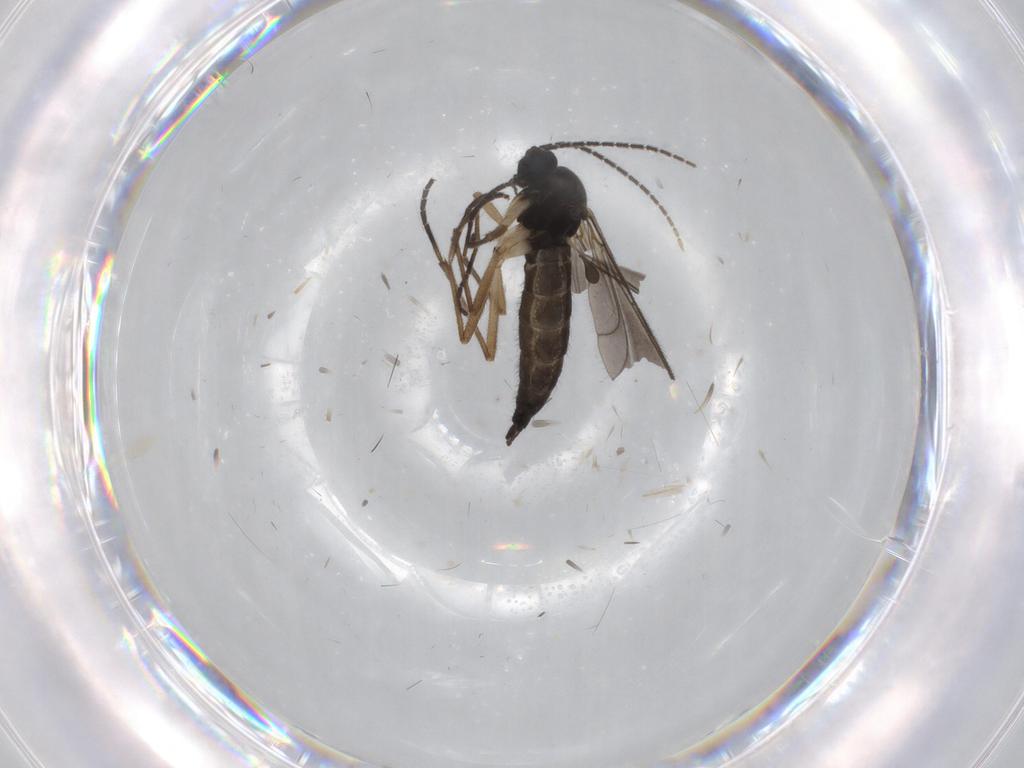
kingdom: Animalia
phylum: Arthropoda
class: Insecta
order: Diptera
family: Sciaridae
